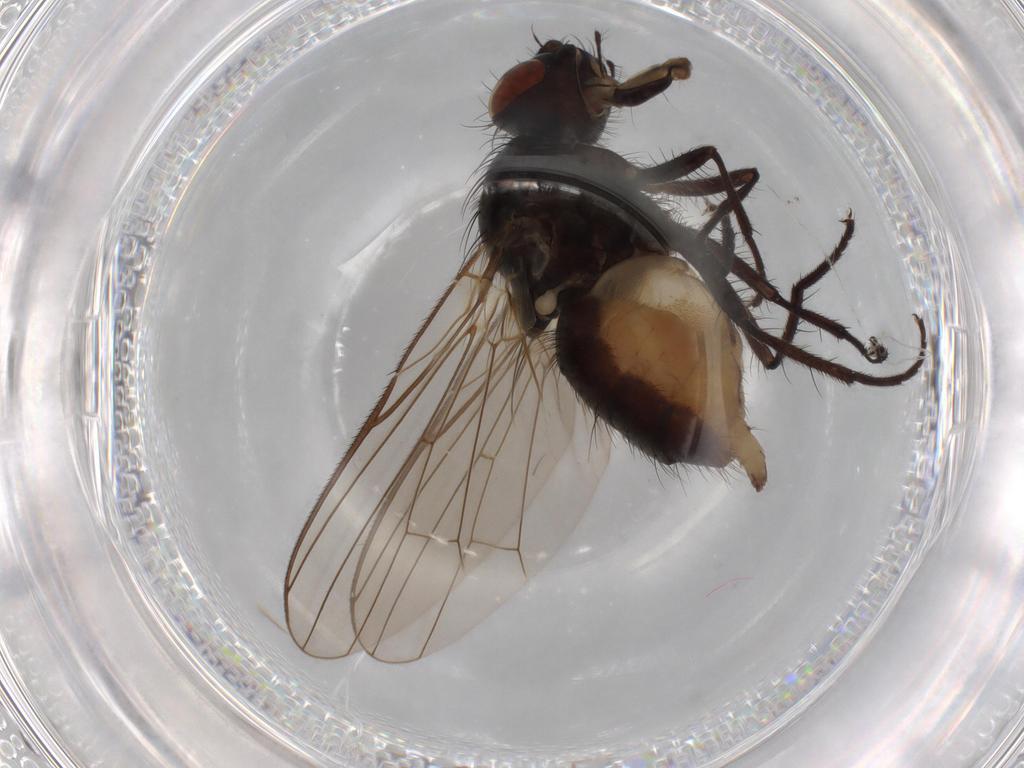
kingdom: Animalia
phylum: Arthropoda
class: Insecta
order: Diptera
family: Anthomyiidae
